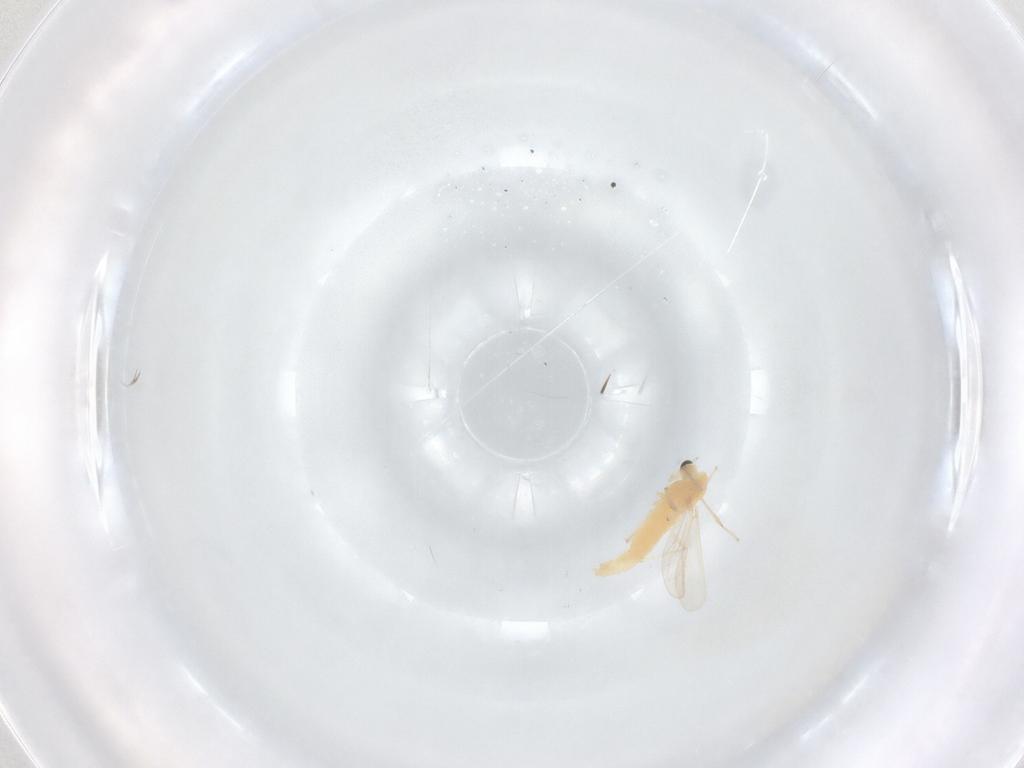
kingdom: Animalia
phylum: Arthropoda
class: Insecta
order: Diptera
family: Chironomidae
